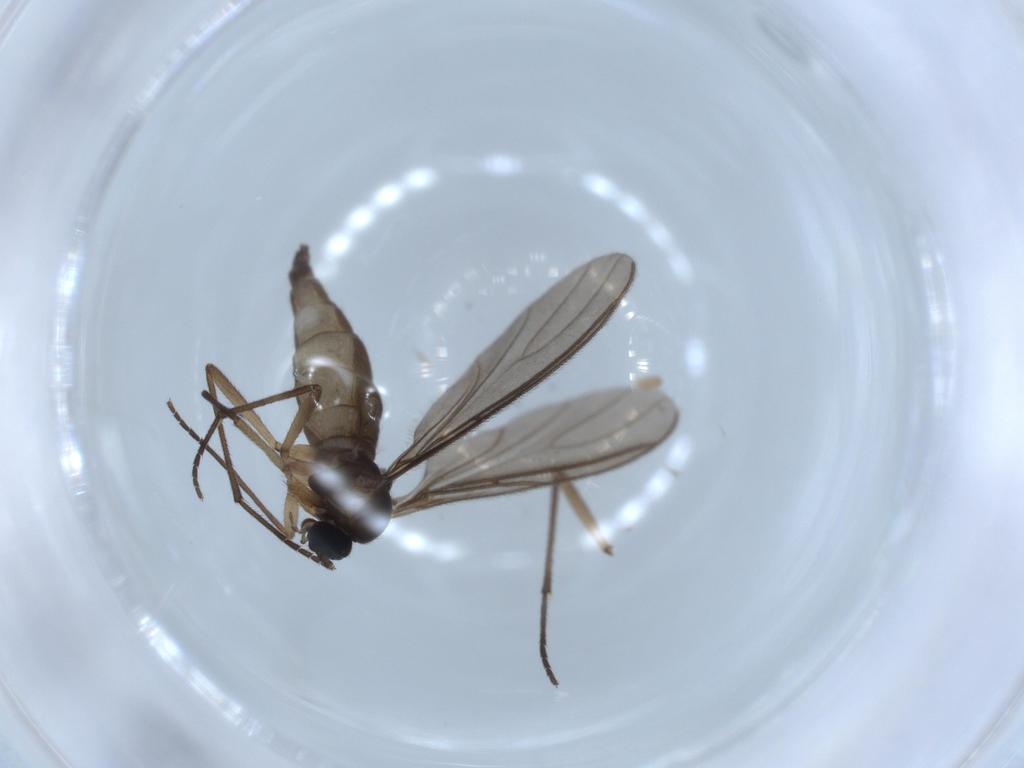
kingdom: Animalia
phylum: Arthropoda
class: Insecta
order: Diptera
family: Sciaridae
